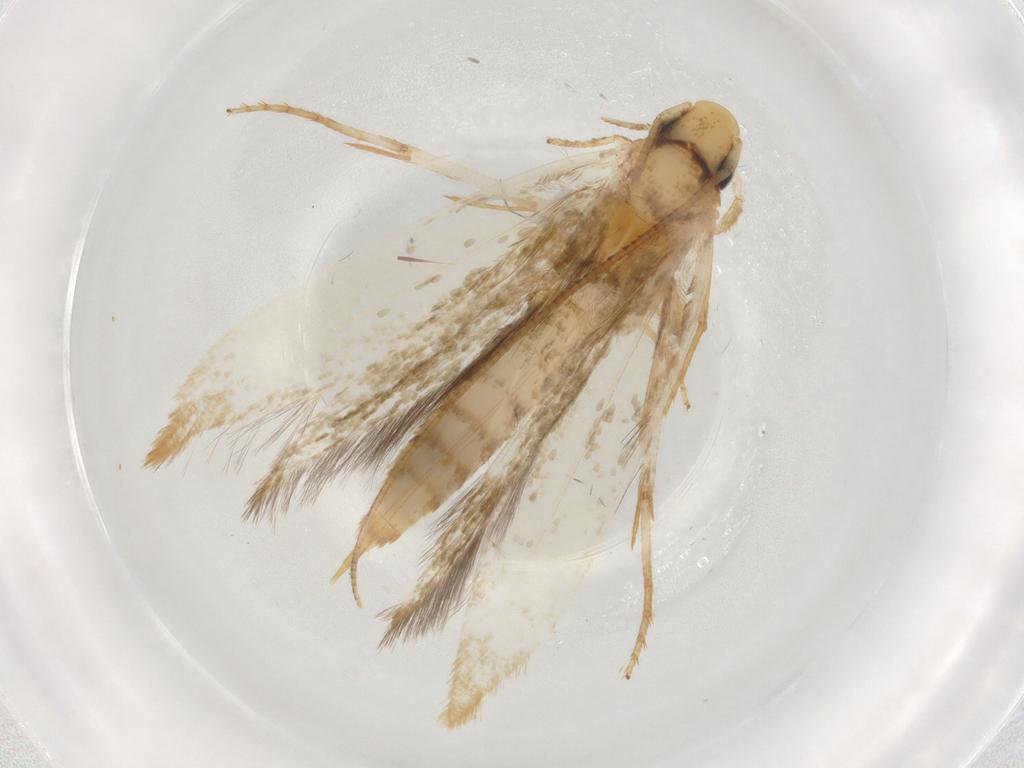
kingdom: Animalia
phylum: Arthropoda
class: Insecta
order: Lepidoptera
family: Tineidae
